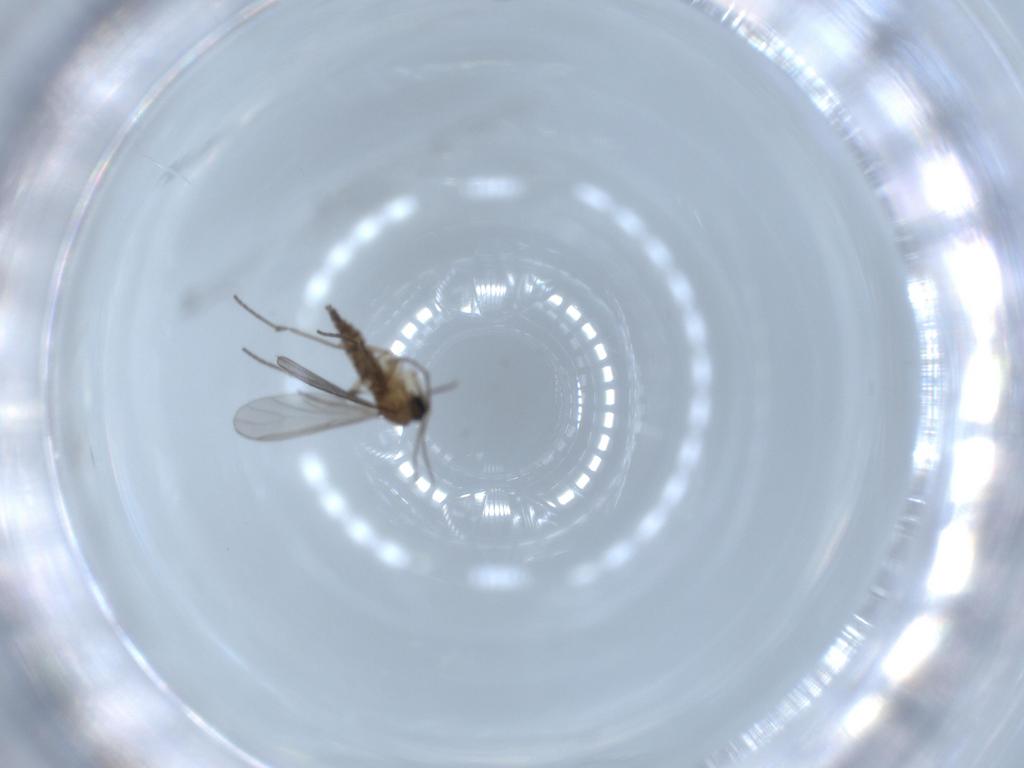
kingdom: Animalia
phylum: Arthropoda
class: Insecta
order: Diptera
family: Sciaridae
